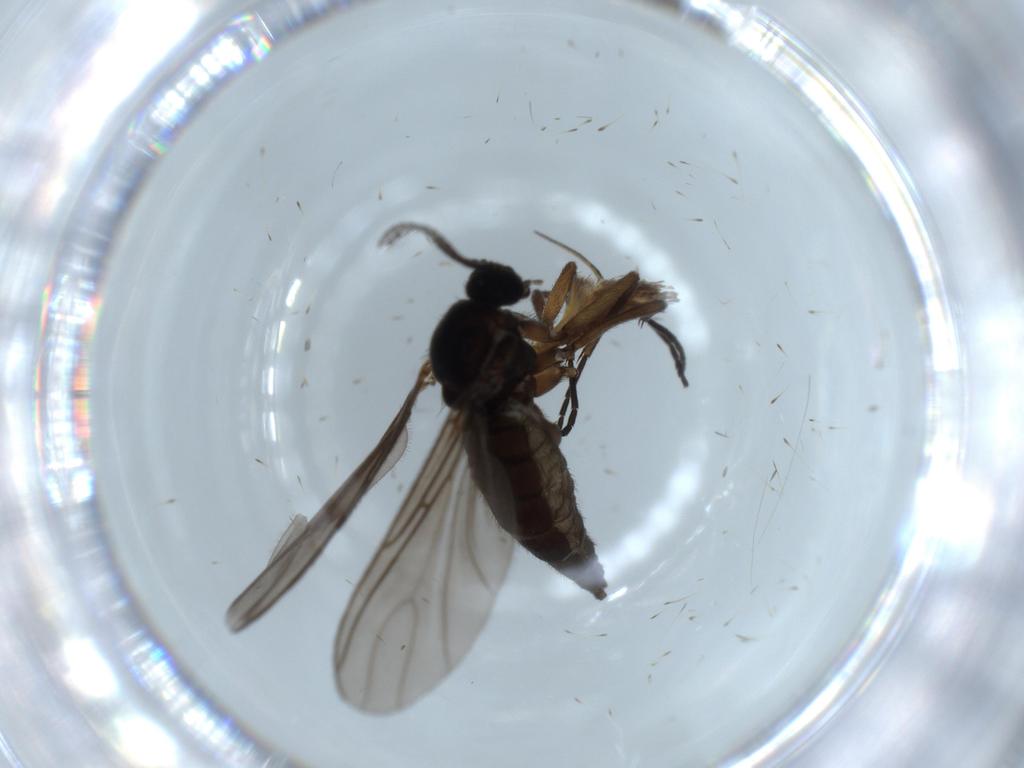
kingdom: Animalia
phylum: Arthropoda
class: Insecta
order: Diptera
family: Sciaridae
